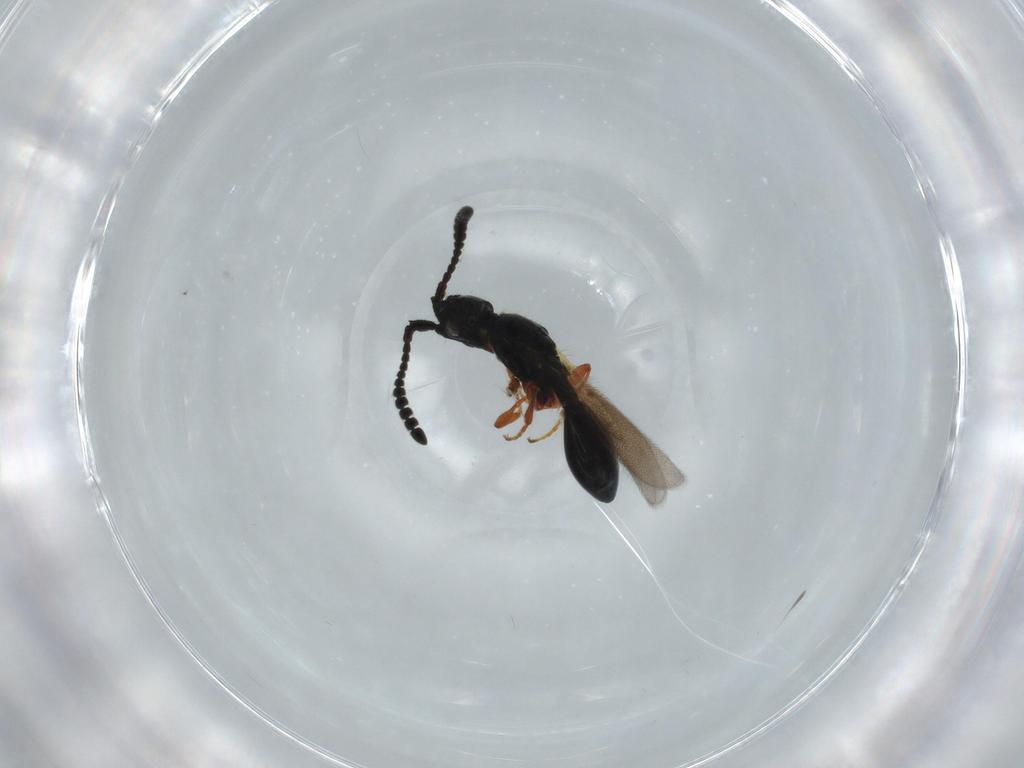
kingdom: Animalia
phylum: Arthropoda
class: Insecta
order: Hymenoptera
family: Diapriidae
